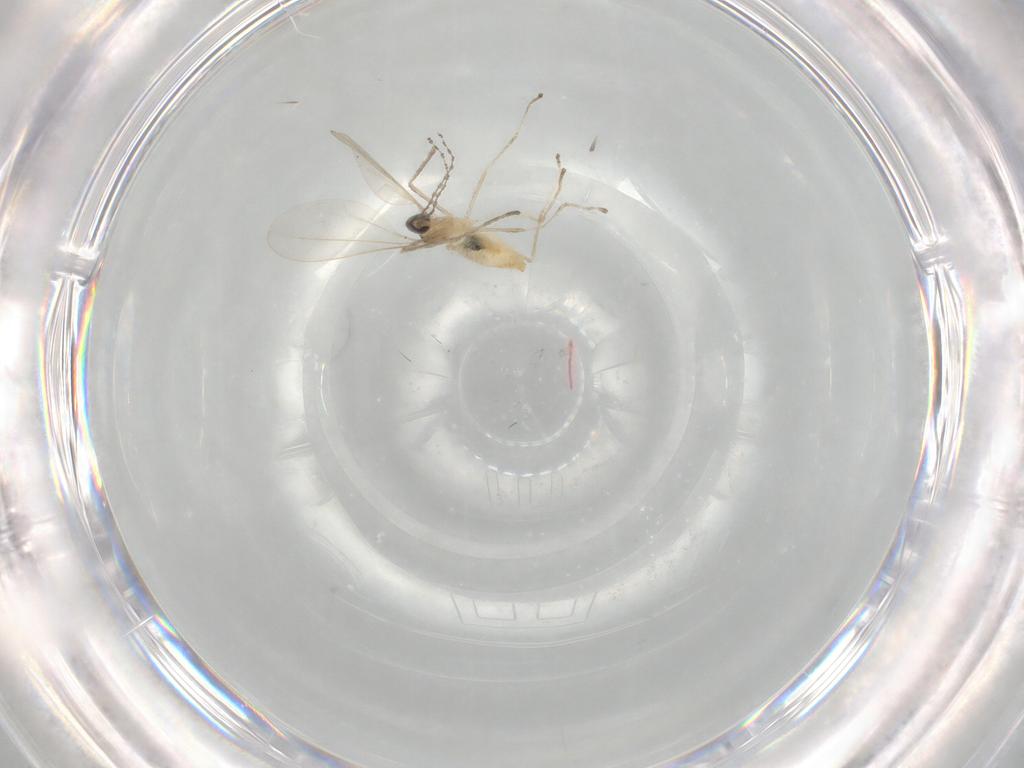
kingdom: Animalia
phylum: Arthropoda
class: Insecta
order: Diptera
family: Cecidomyiidae
